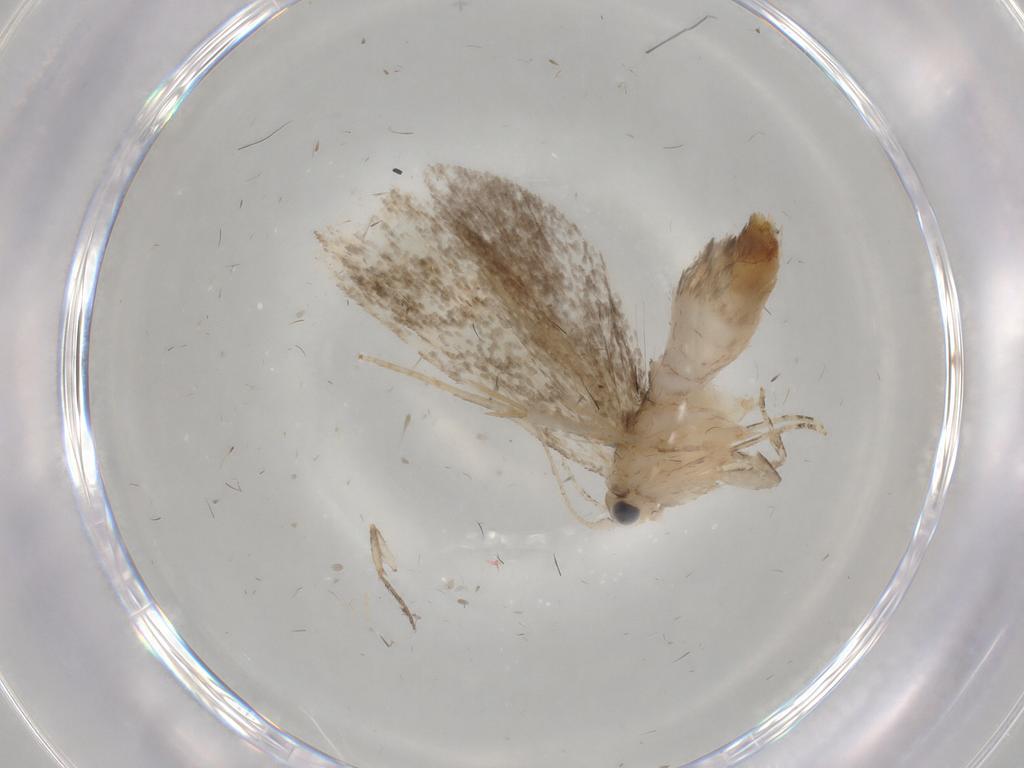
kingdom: Animalia
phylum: Arthropoda
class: Insecta
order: Lepidoptera
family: Tineidae
